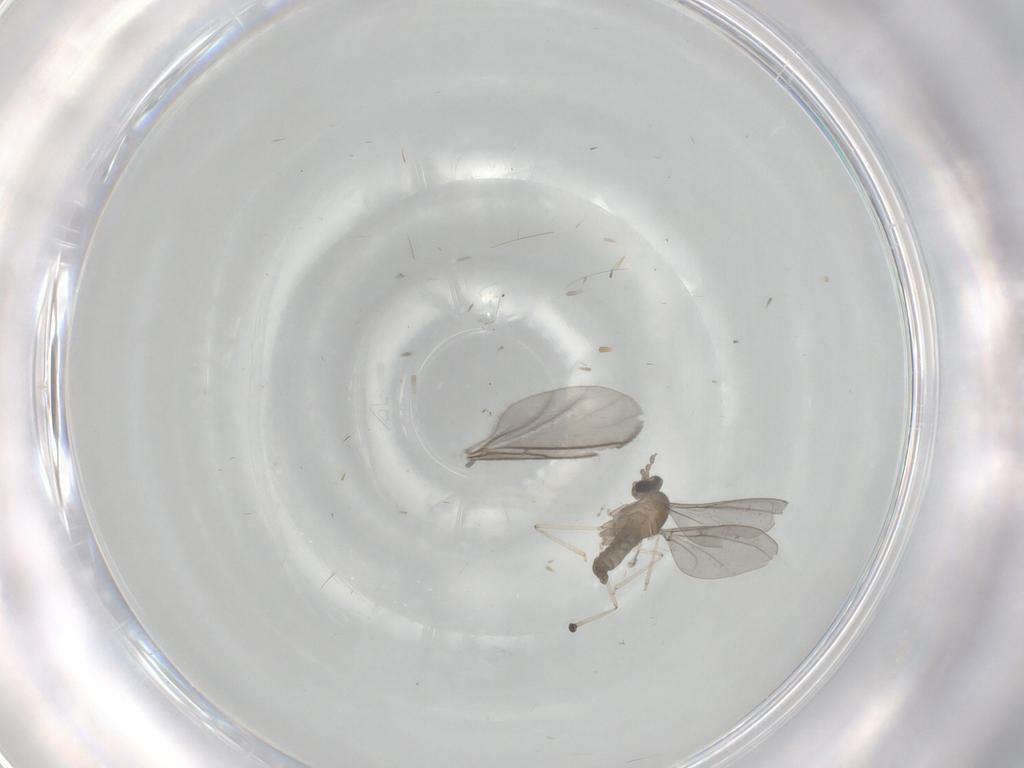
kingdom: Animalia
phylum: Arthropoda
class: Insecta
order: Diptera
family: Cecidomyiidae
